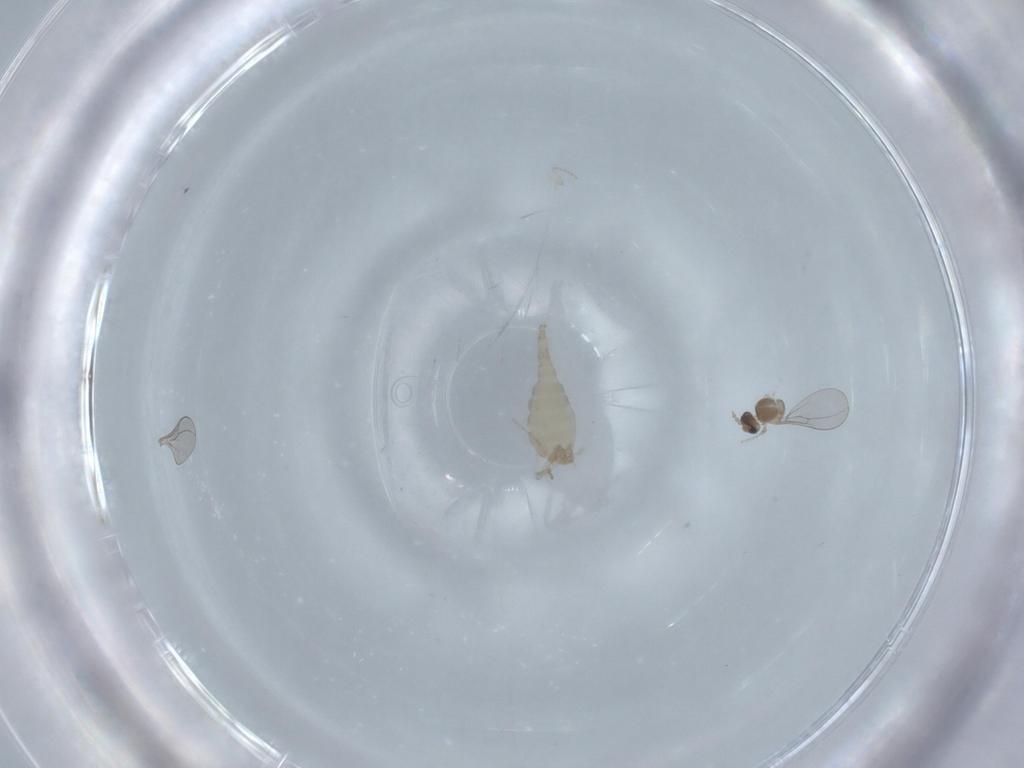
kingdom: Animalia
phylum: Arthropoda
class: Insecta
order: Diptera
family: Cecidomyiidae
